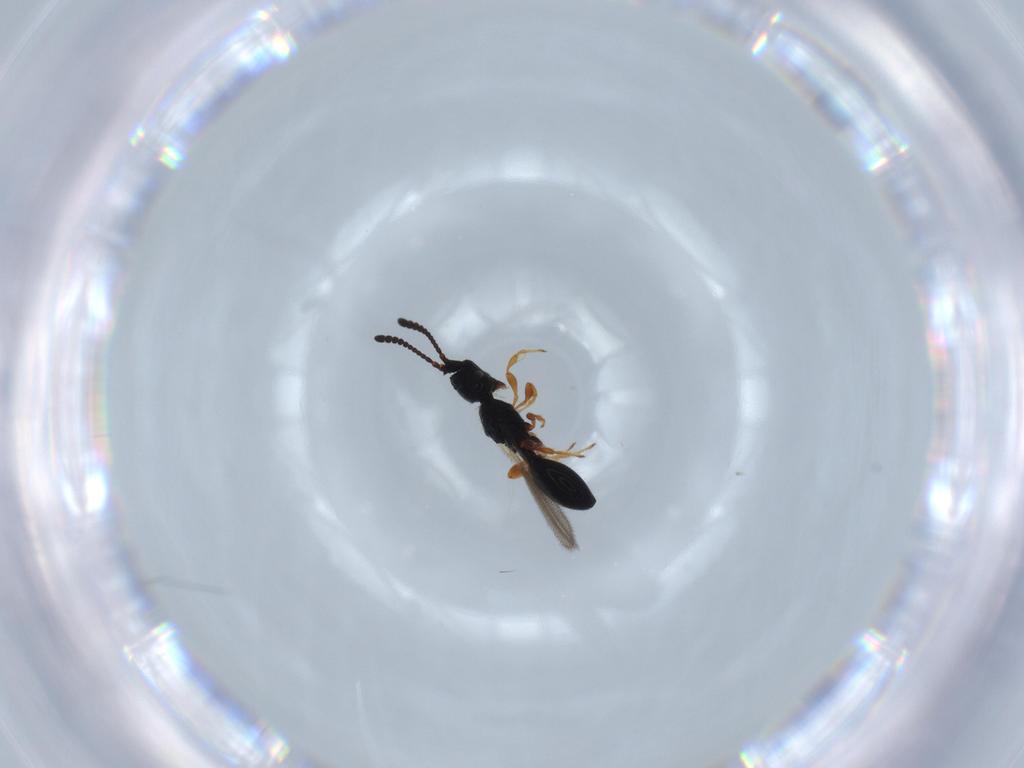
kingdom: Animalia
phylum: Arthropoda
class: Insecta
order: Hymenoptera
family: Diapriidae
